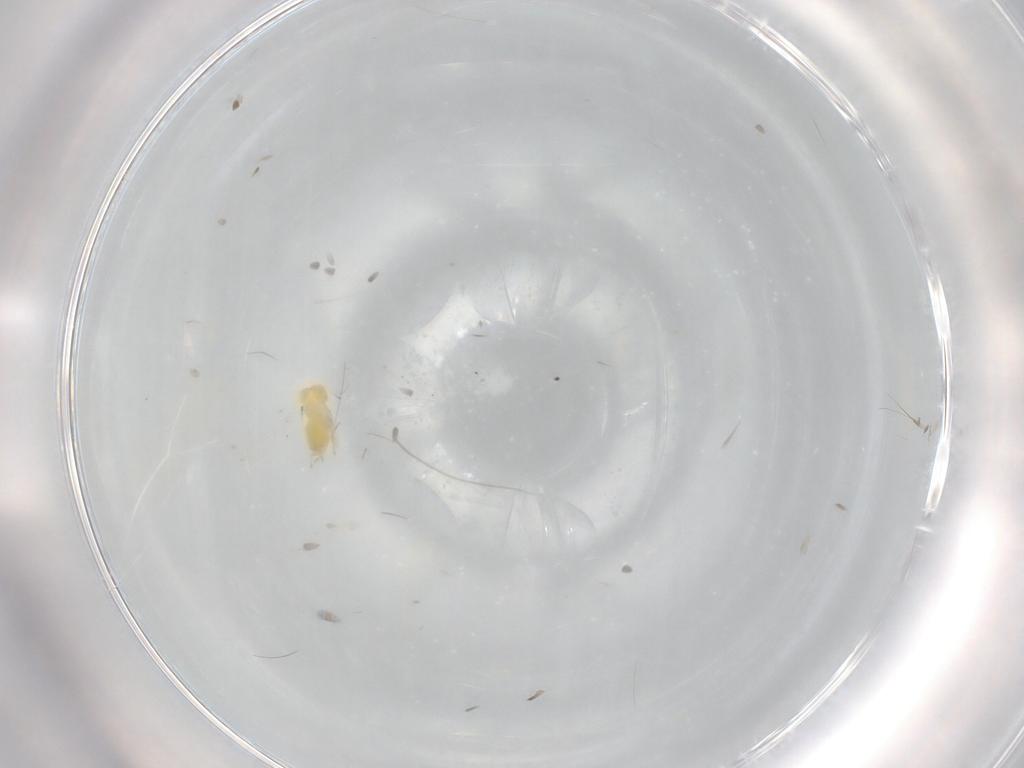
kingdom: Animalia
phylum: Arthropoda
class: Insecta
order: Hemiptera
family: Aleyrodidae
